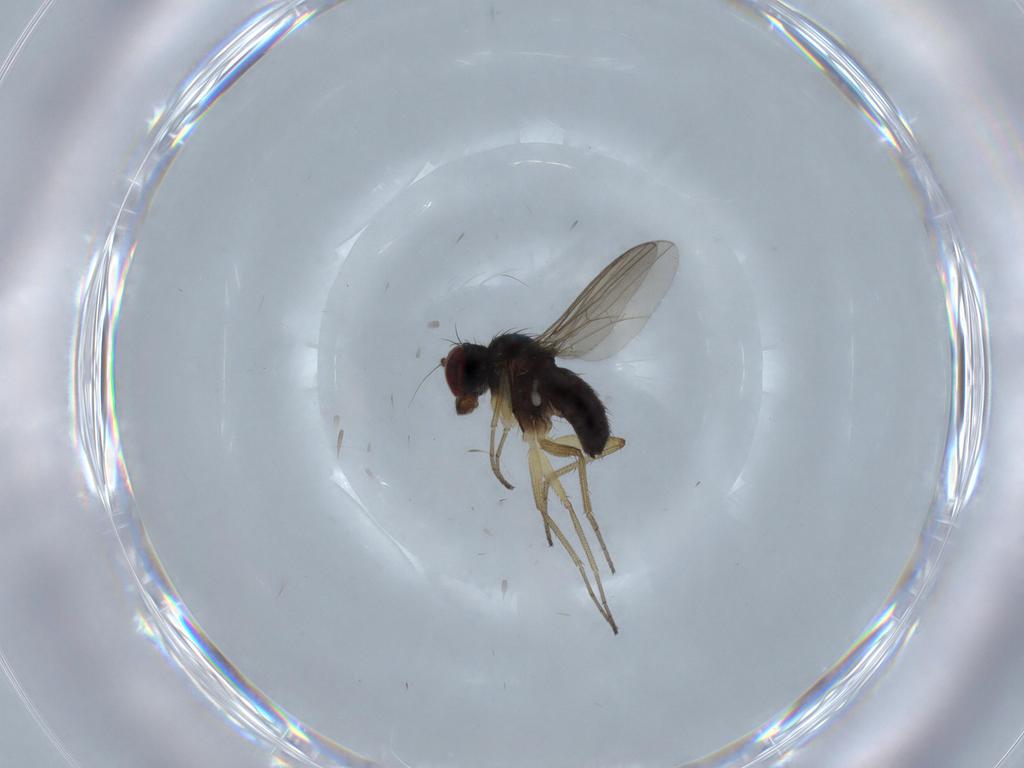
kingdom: Animalia
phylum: Arthropoda
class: Insecta
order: Diptera
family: Dolichopodidae
